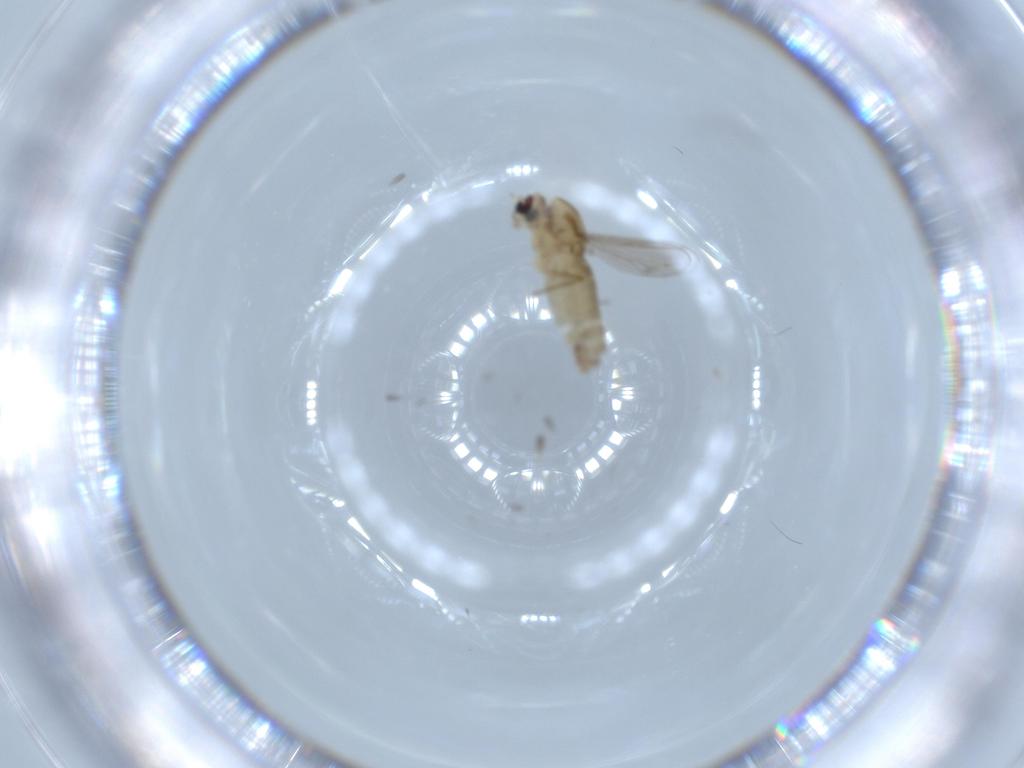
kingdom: Animalia
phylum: Arthropoda
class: Insecta
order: Diptera
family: Chironomidae
